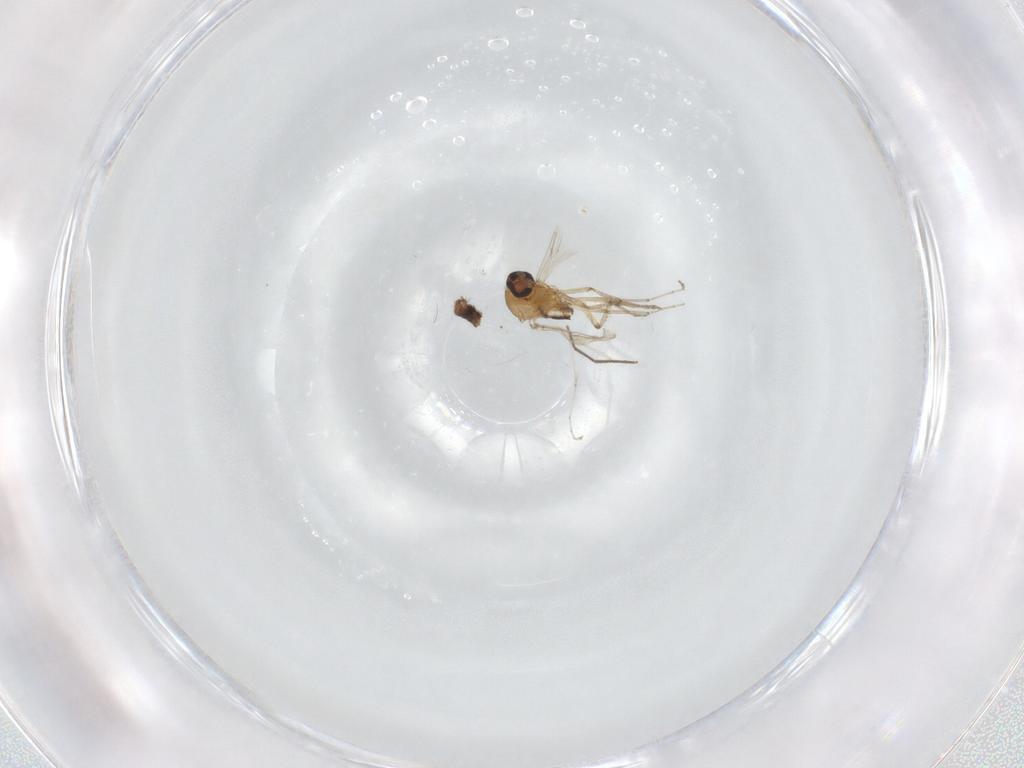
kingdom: Animalia
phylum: Arthropoda
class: Insecta
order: Diptera
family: Ceratopogonidae
